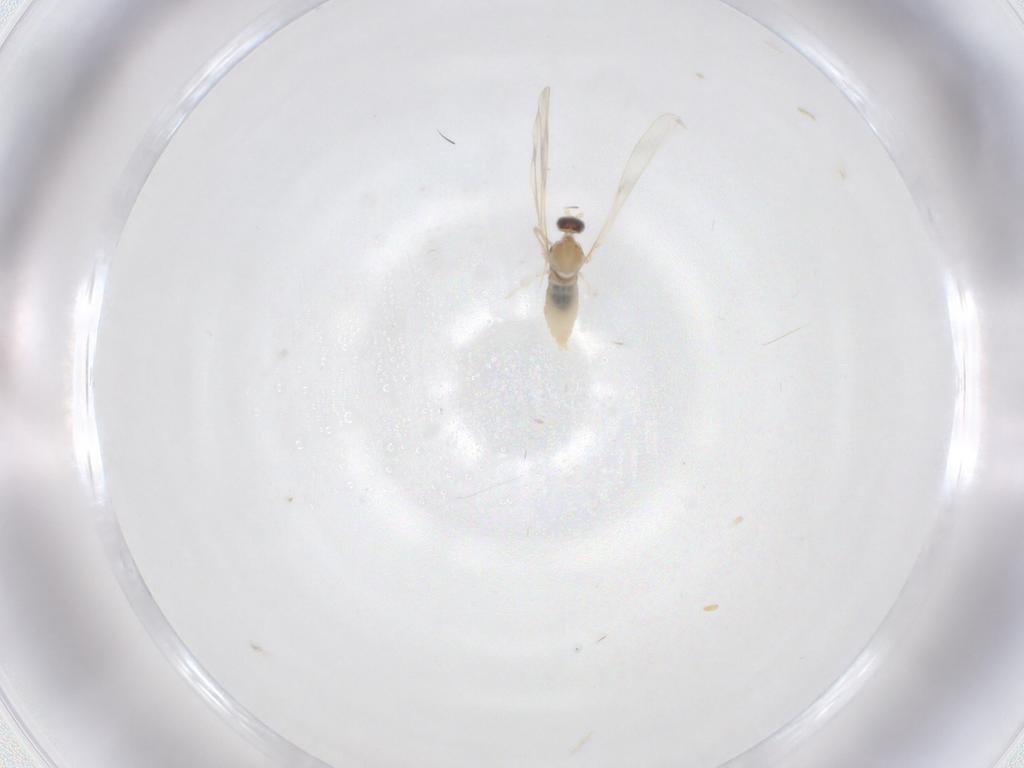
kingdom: Animalia
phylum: Arthropoda
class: Insecta
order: Diptera
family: Cecidomyiidae
